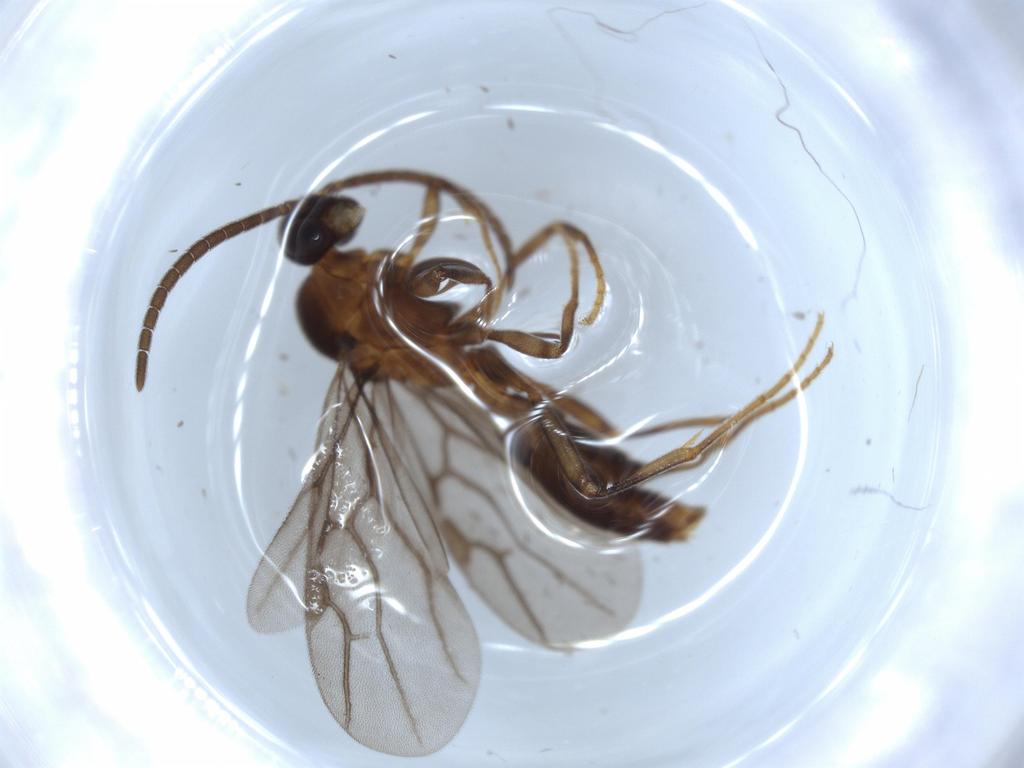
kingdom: Animalia
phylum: Arthropoda
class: Insecta
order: Hymenoptera
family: Formicidae
